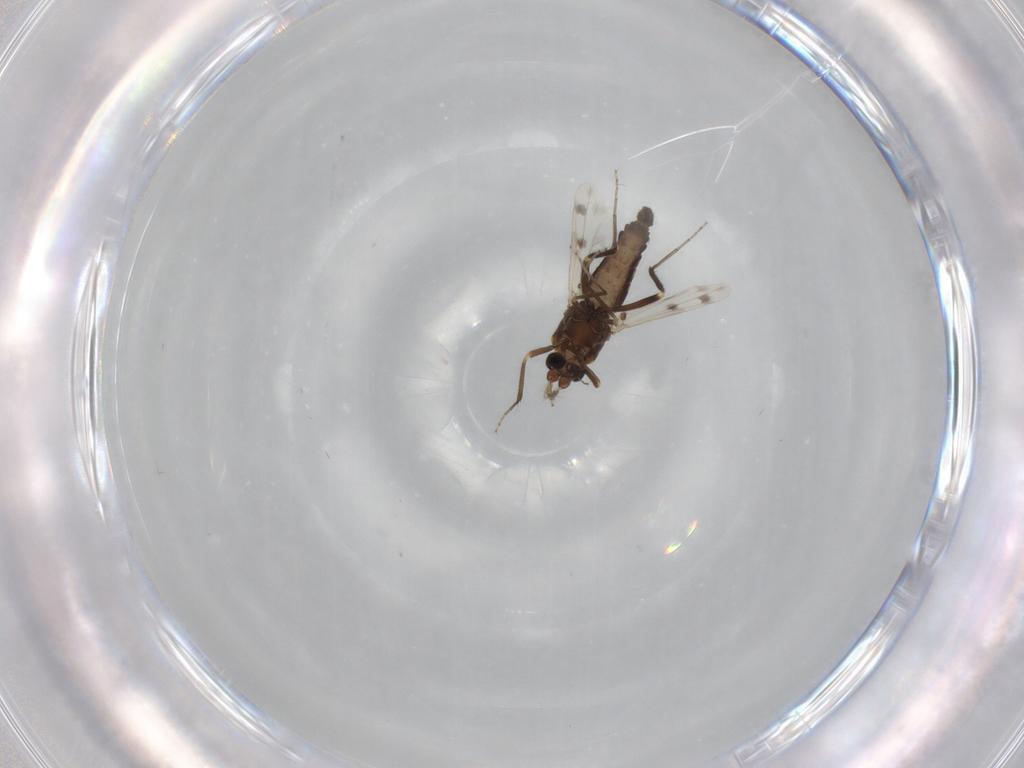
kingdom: Animalia
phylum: Arthropoda
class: Insecta
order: Diptera
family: Ceratopogonidae
